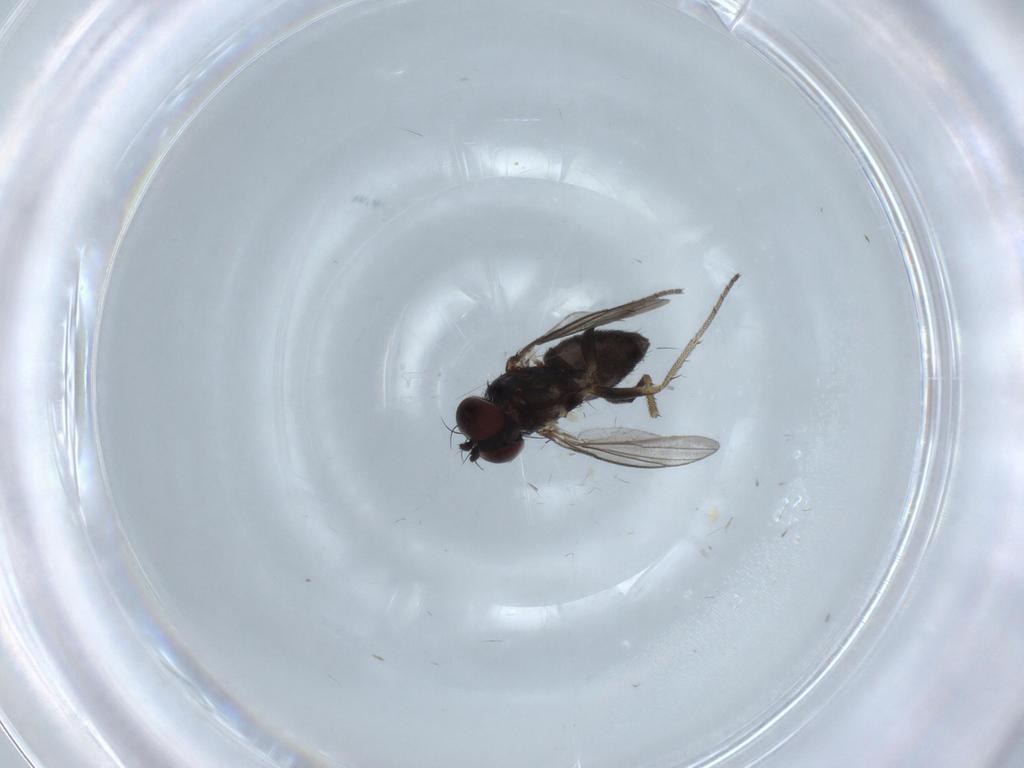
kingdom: Animalia
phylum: Arthropoda
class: Insecta
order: Diptera
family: Dolichopodidae
